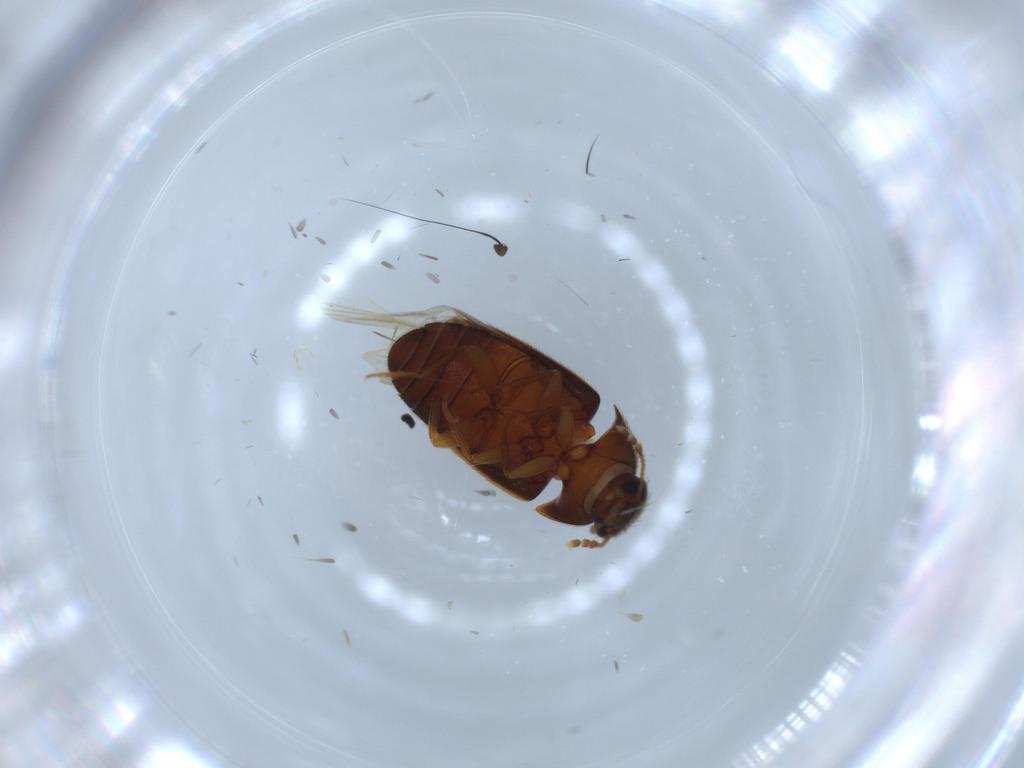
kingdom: Animalia
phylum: Arthropoda
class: Insecta
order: Coleoptera
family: Mycetophagidae
